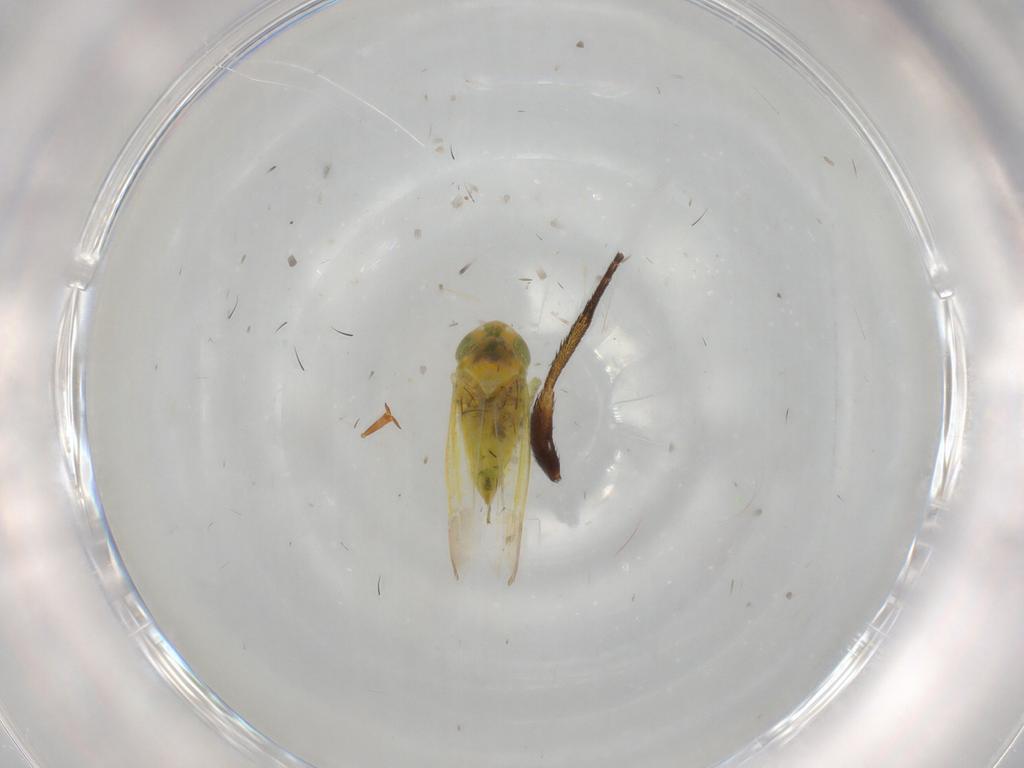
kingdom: Animalia
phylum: Arthropoda
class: Insecta
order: Hemiptera
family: Cicadellidae
